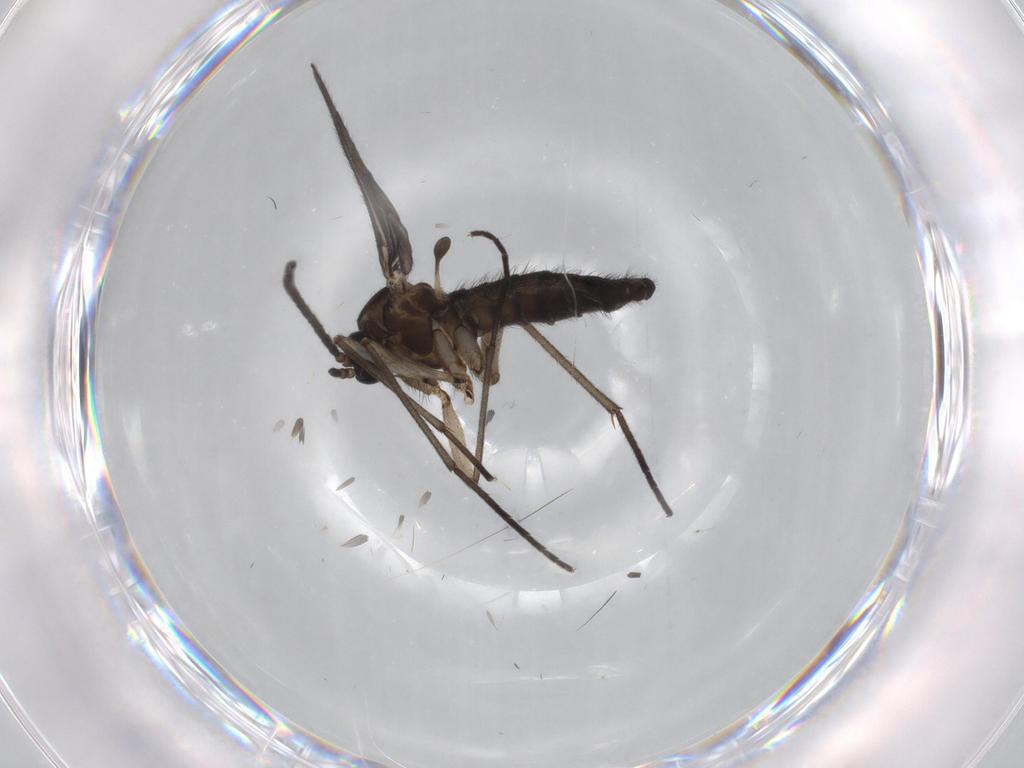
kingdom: Animalia
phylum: Arthropoda
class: Insecta
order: Diptera
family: Sciaridae
